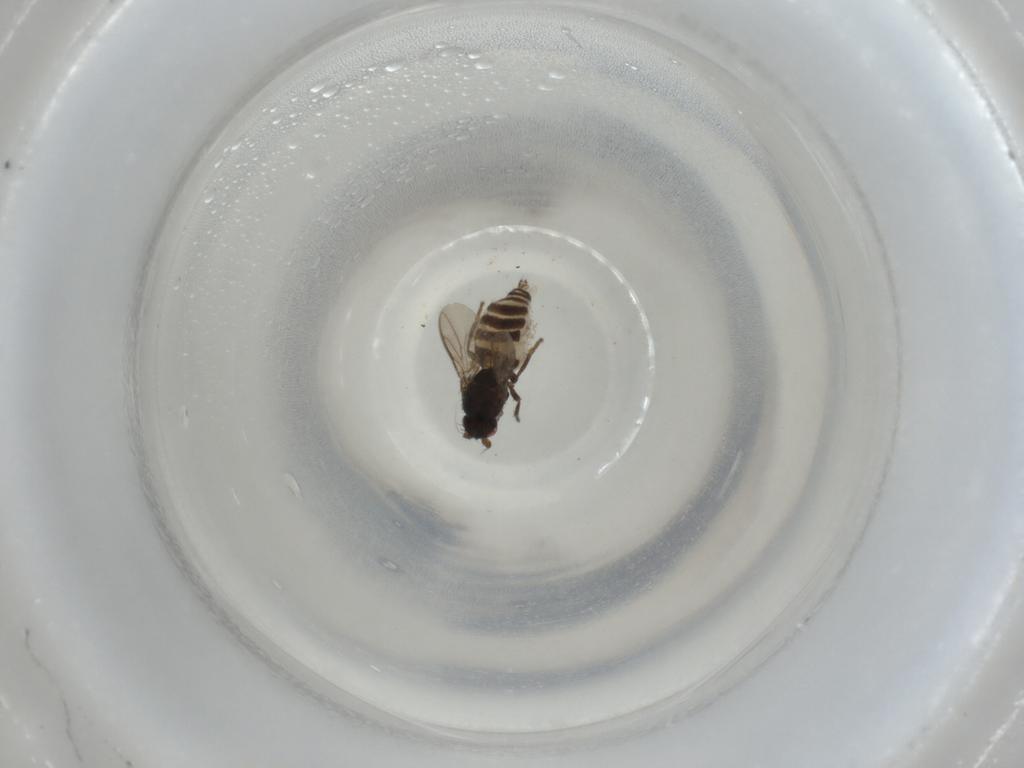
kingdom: Animalia
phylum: Arthropoda
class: Insecta
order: Diptera
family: Sphaeroceridae
